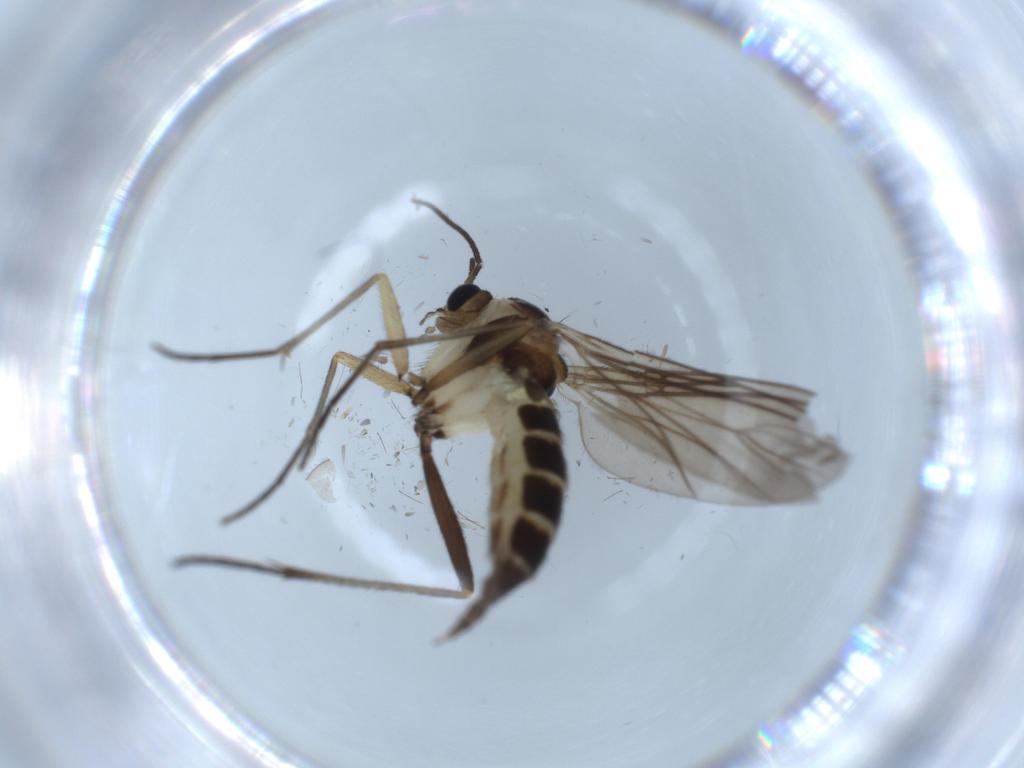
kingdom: Animalia
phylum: Arthropoda
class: Insecta
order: Diptera
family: Sciaridae
